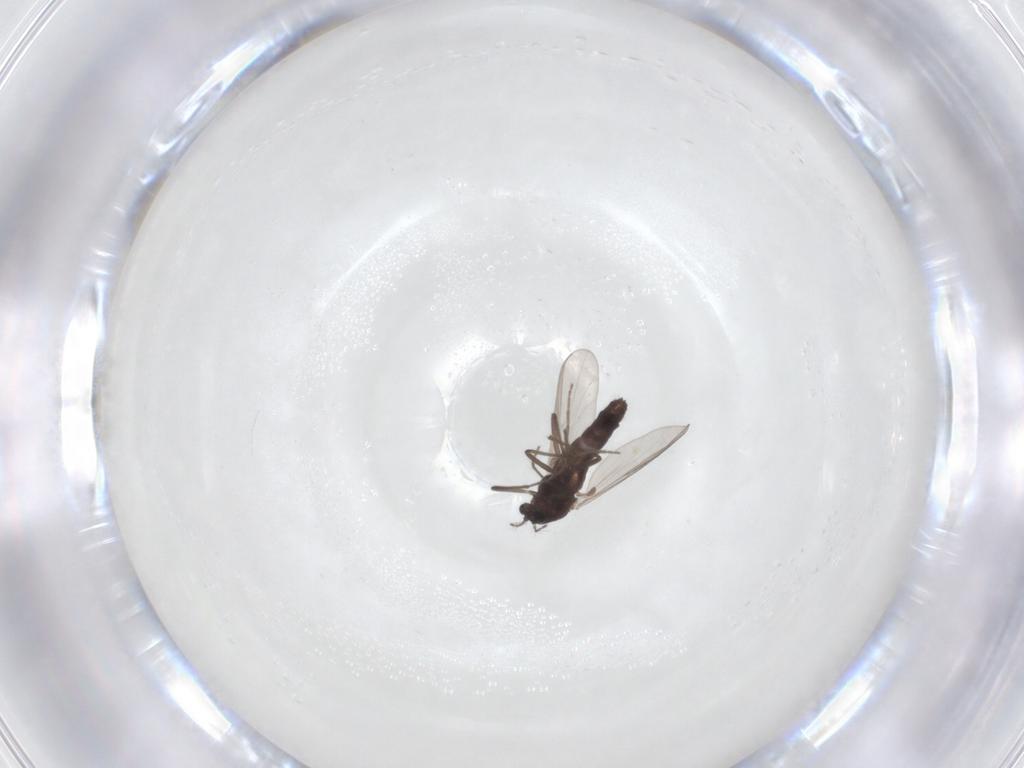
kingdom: Animalia
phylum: Arthropoda
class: Insecta
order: Diptera
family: Chironomidae
